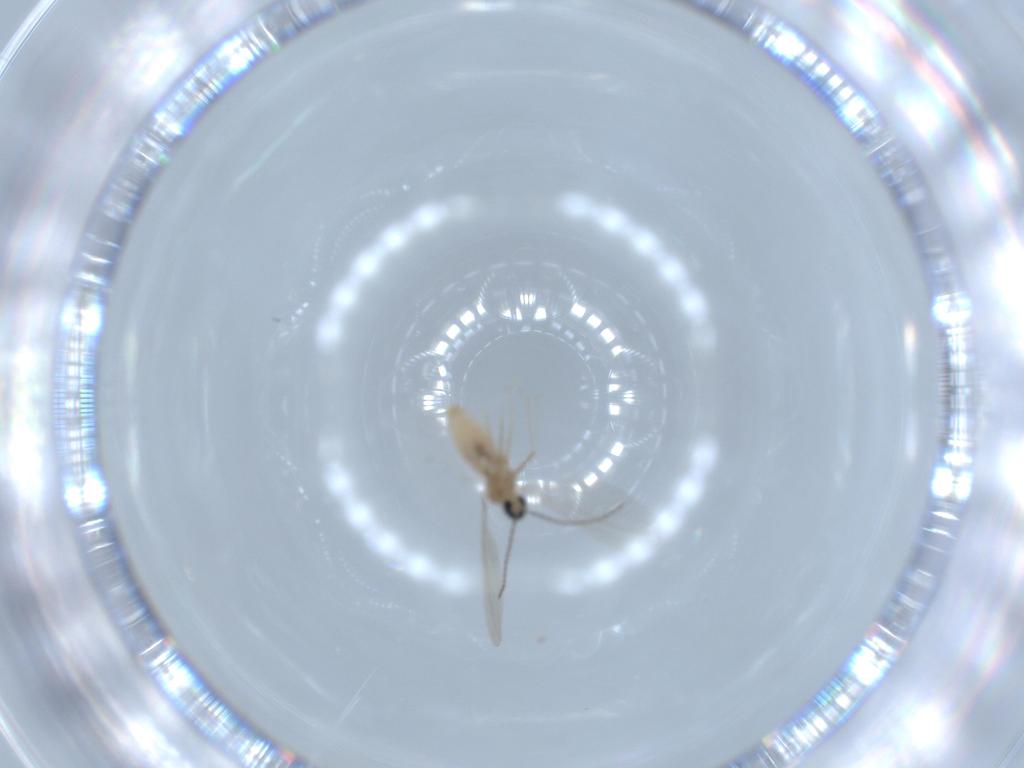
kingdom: Animalia
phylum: Arthropoda
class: Insecta
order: Diptera
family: Cecidomyiidae
